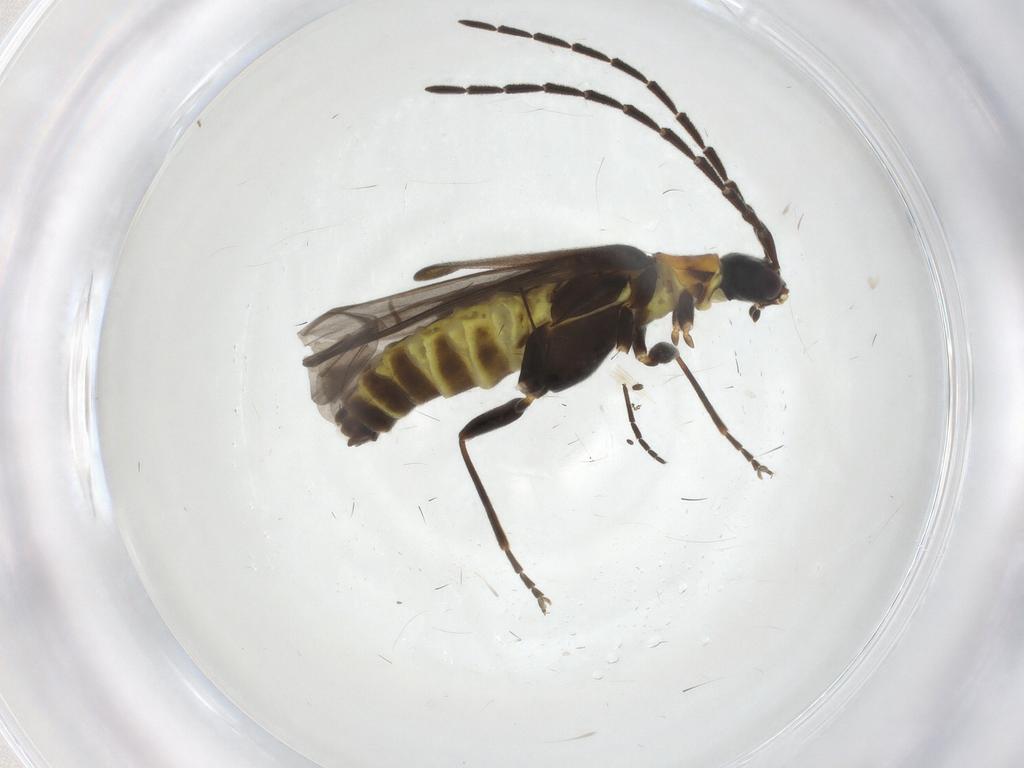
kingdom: Animalia
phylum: Arthropoda
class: Insecta
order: Coleoptera
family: Cantharidae
